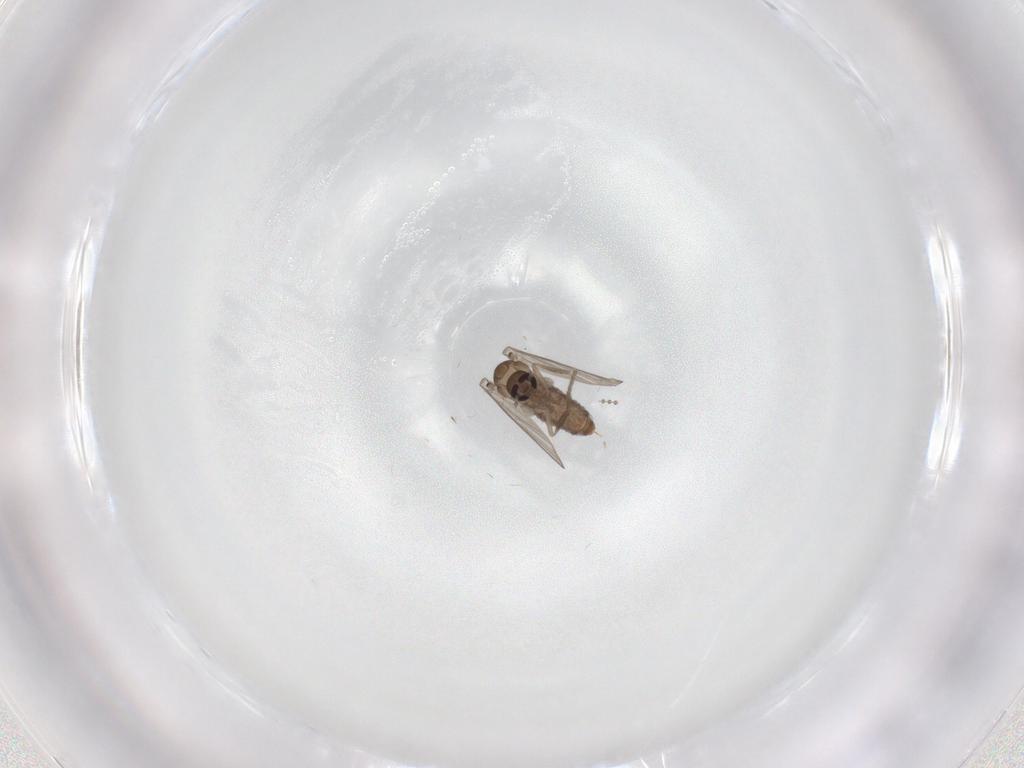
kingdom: Animalia
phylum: Arthropoda
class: Insecta
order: Diptera
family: Psychodidae
